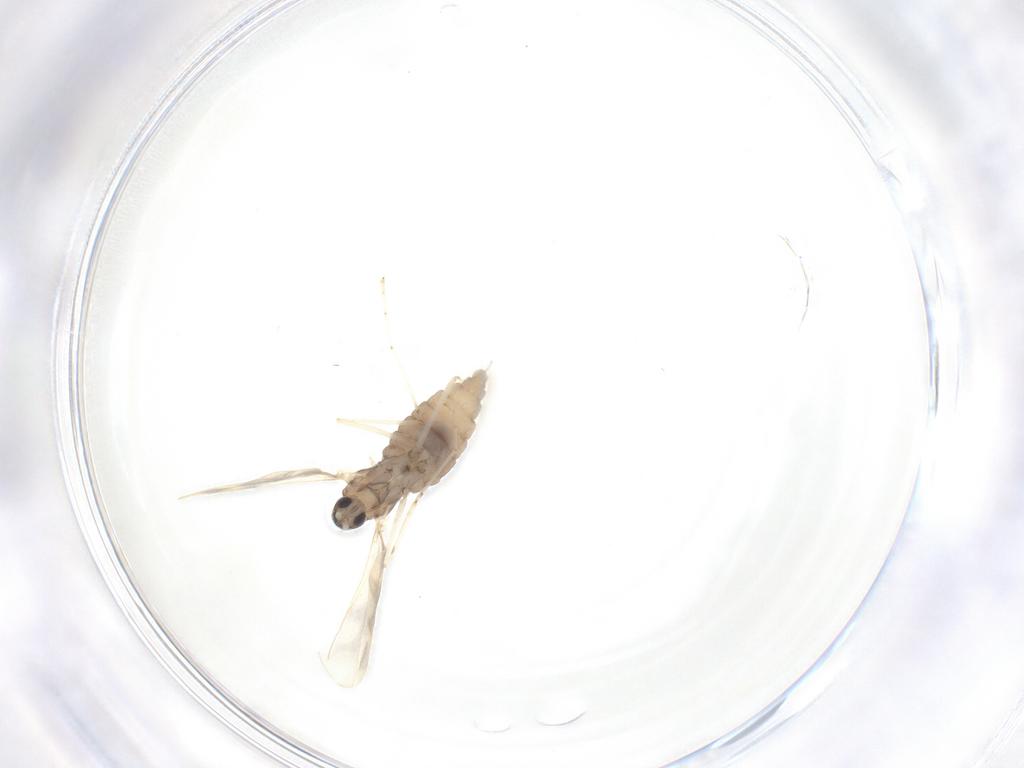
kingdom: Animalia
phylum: Arthropoda
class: Insecta
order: Diptera
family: Cecidomyiidae
